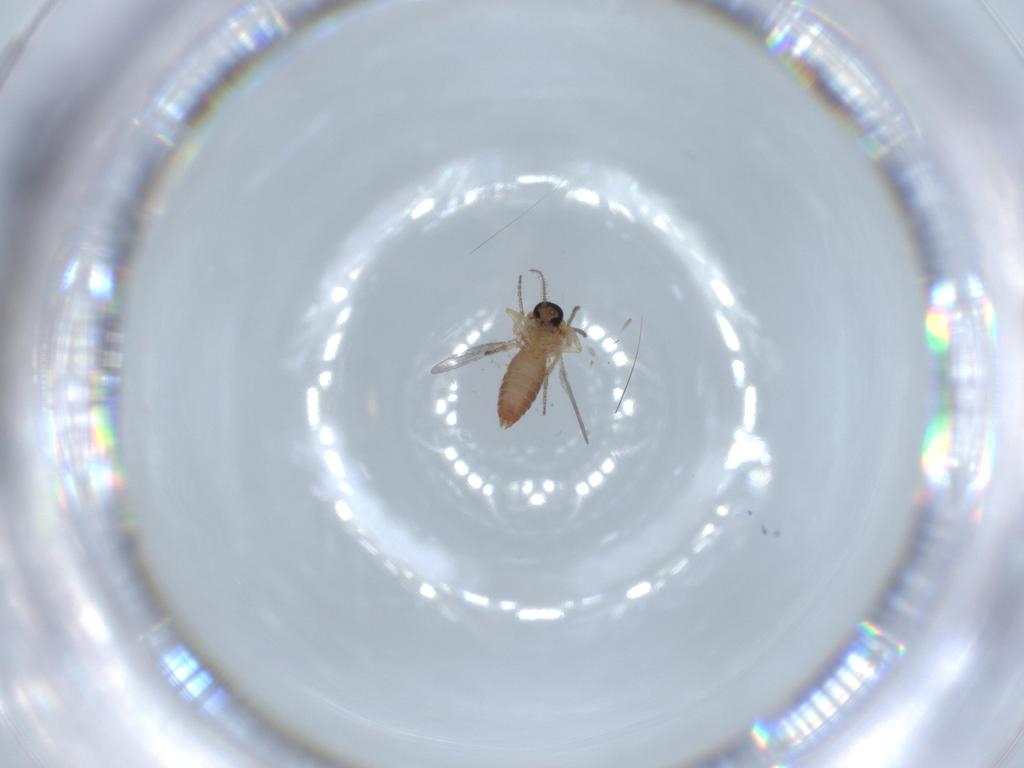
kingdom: Animalia
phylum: Arthropoda
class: Insecta
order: Diptera
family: Ceratopogonidae
